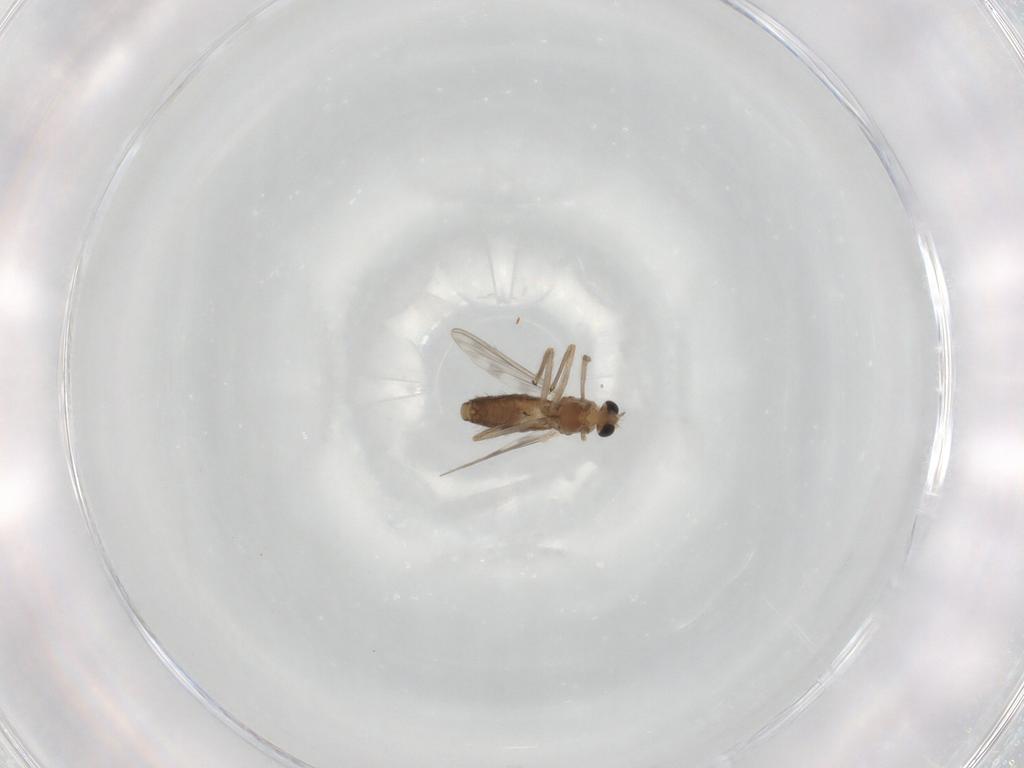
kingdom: Animalia
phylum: Arthropoda
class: Insecta
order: Diptera
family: Chironomidae
